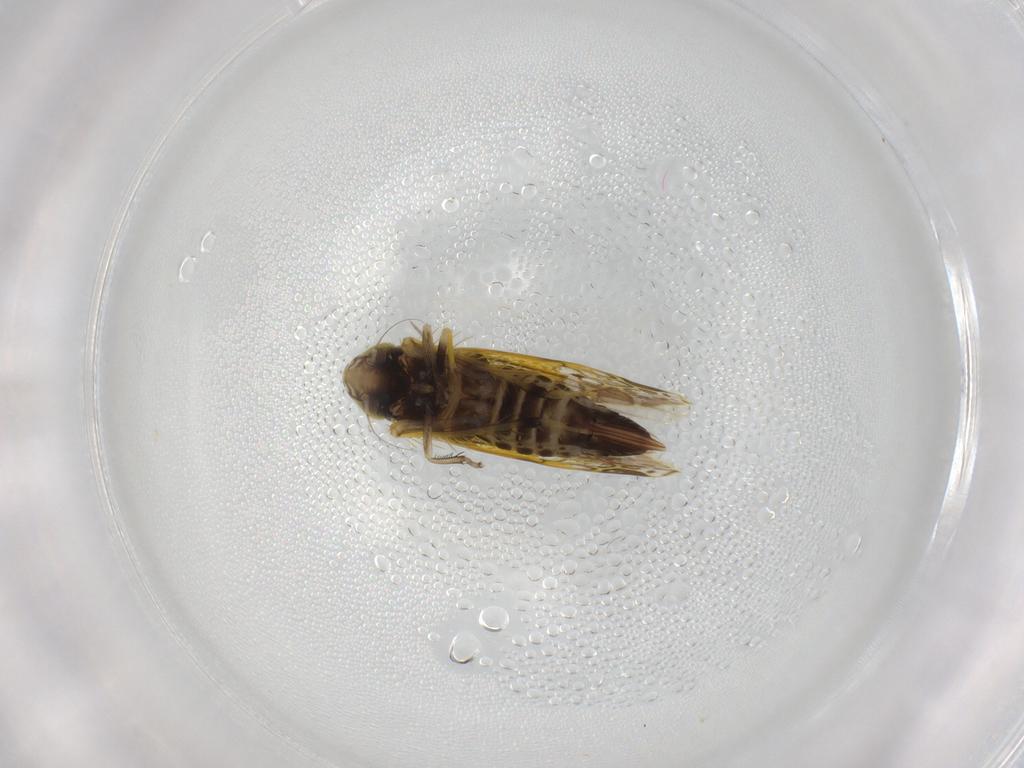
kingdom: Animalia
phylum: Arthropoda
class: Insecta
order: Hemiptera
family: Cicadellidae
